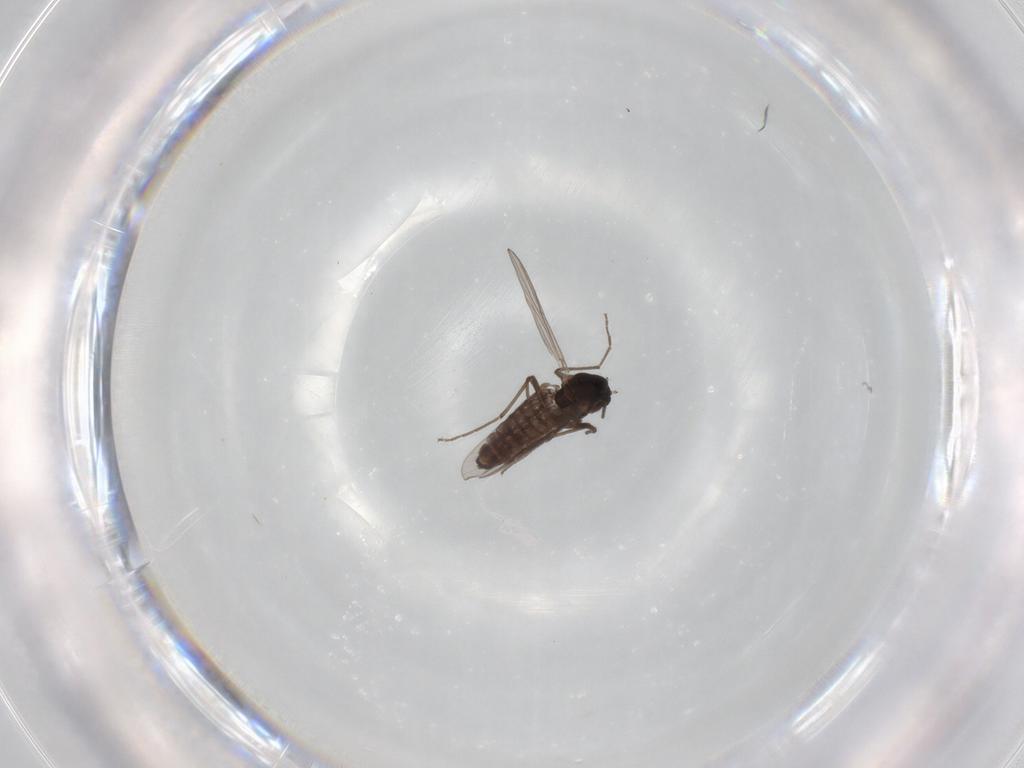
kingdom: Animalia
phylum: Arthropoda
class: Insecta
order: Diptera
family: Chironomidae
